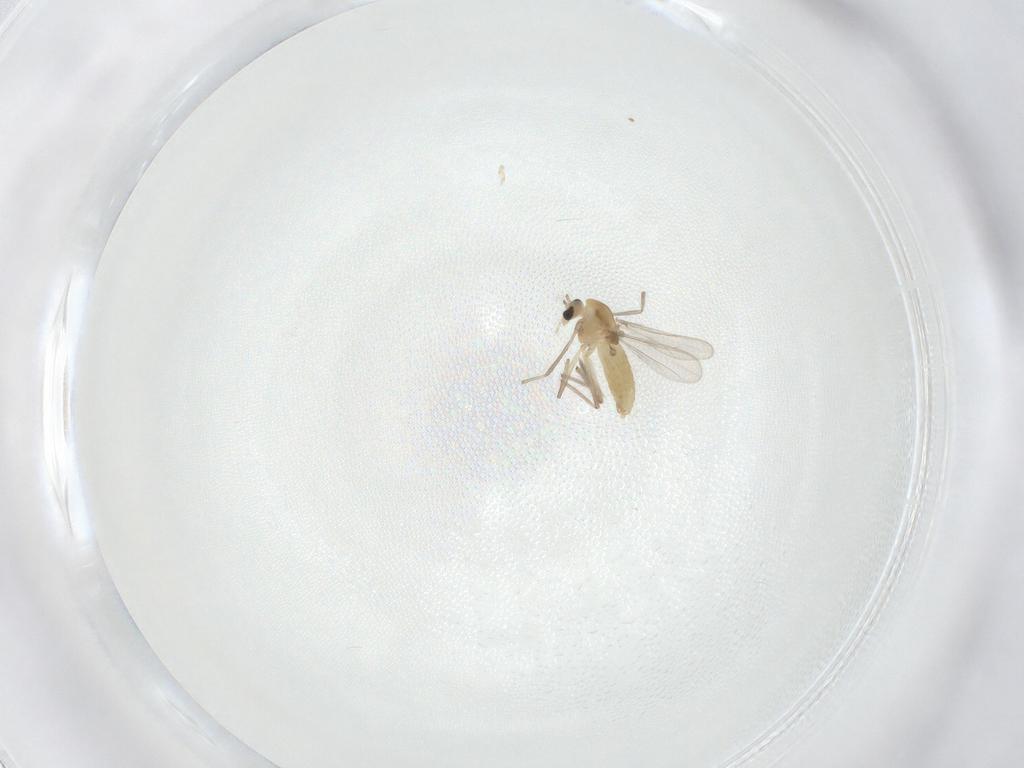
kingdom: Animalia
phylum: Arthropoda
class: Insecta
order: Diptera
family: Chironomidae
